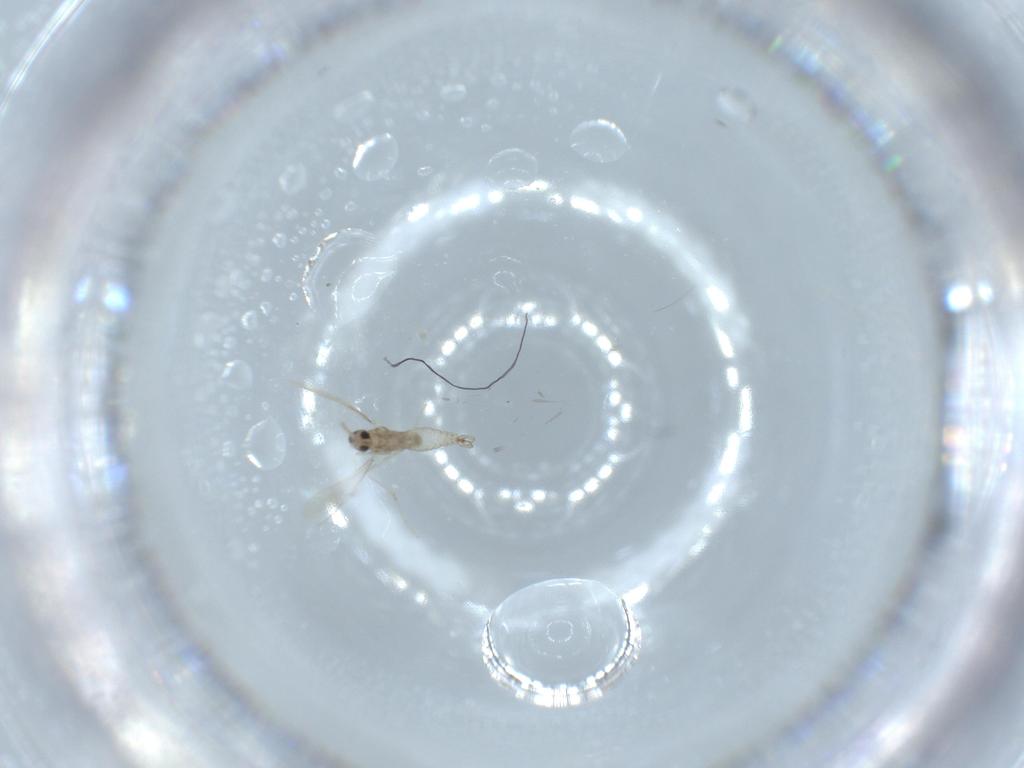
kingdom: Animalia
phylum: Arthropoda
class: Insecta
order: Diptera
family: Cecidomyiidae
